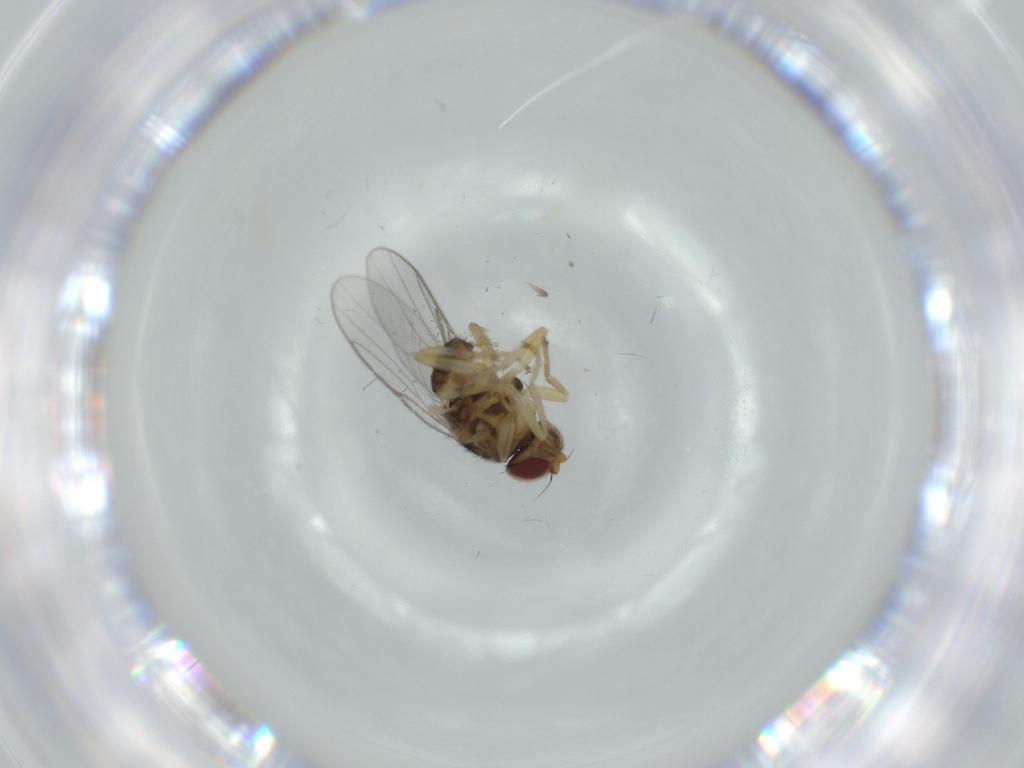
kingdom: Animalia
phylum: Arthropoda
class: Insecta
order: Diptera
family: Chloropidae
